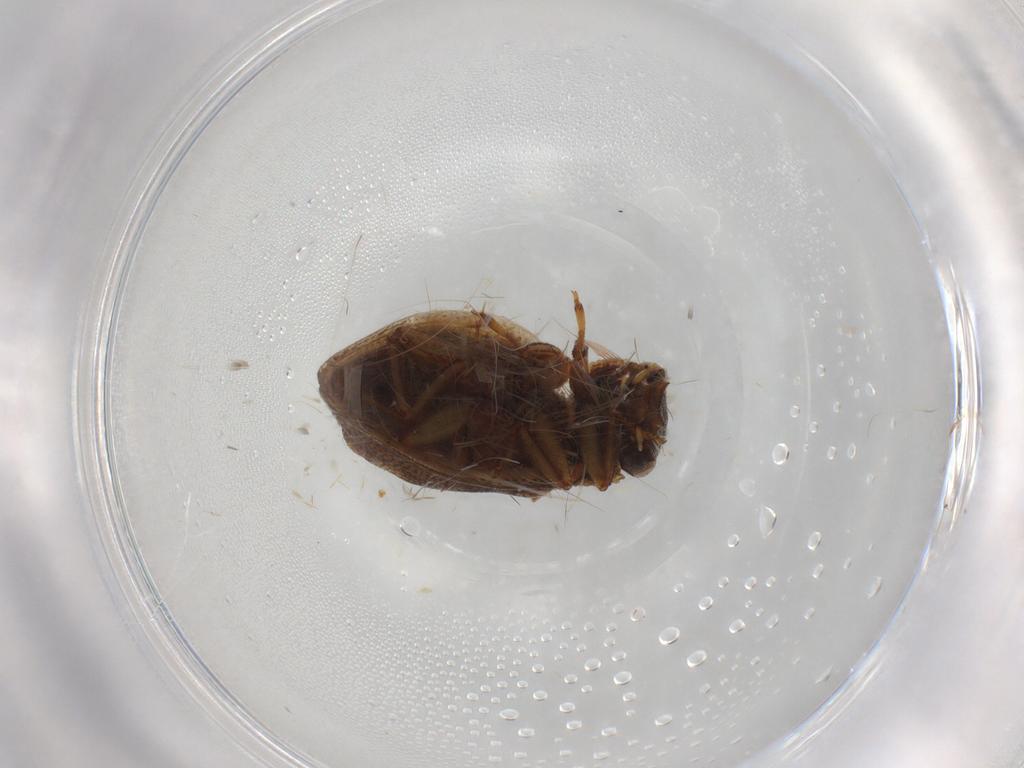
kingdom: Animalia
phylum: Arthropoda
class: Insecta
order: Coleoptera
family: Spercheidae
